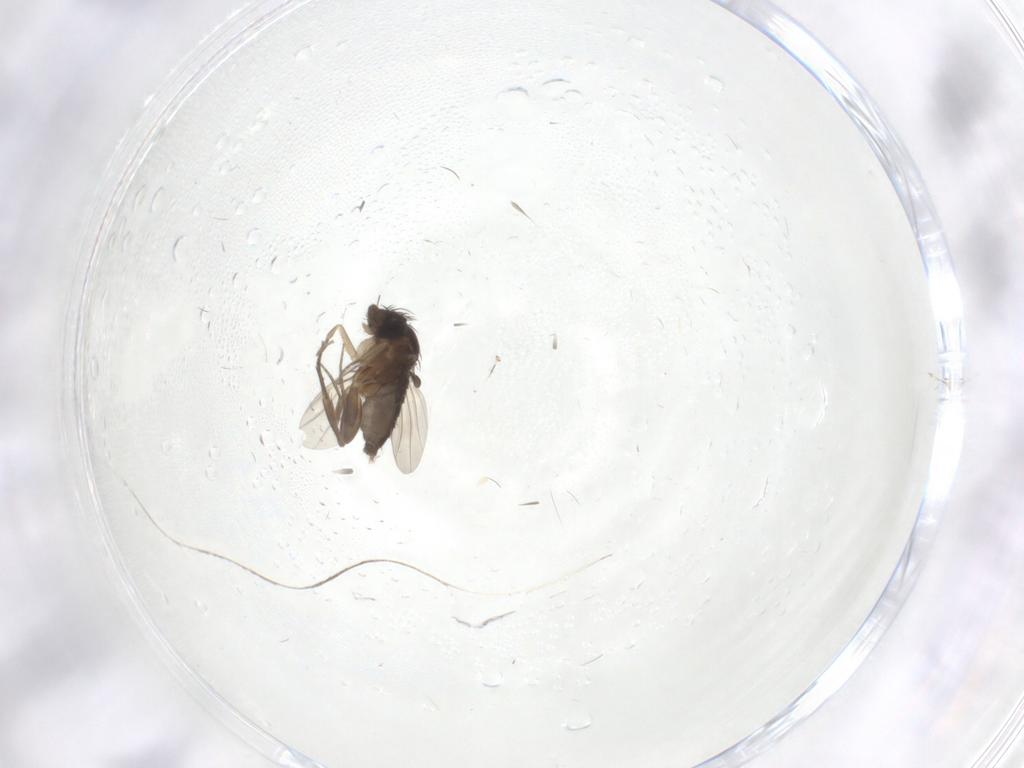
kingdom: Animalia
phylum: Arthropoda
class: Insecta
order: Diptera
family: Phoridae
